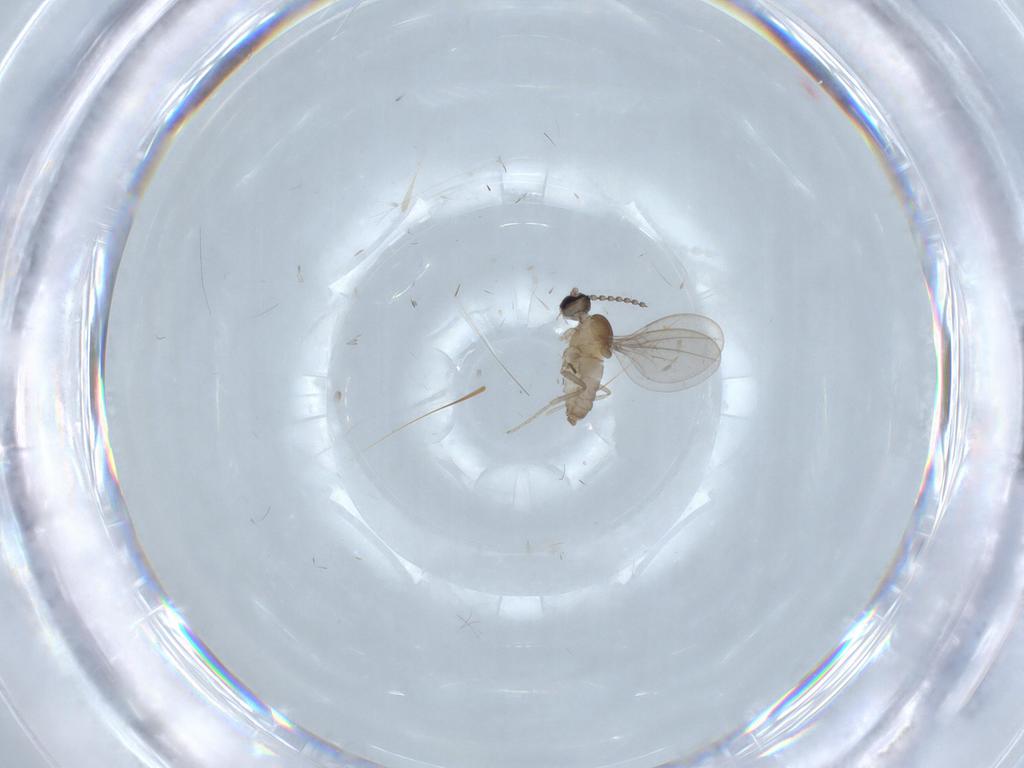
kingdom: Animalia
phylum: Arthropoda
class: Insecta
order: Diptera
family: Cecidomyiidae
